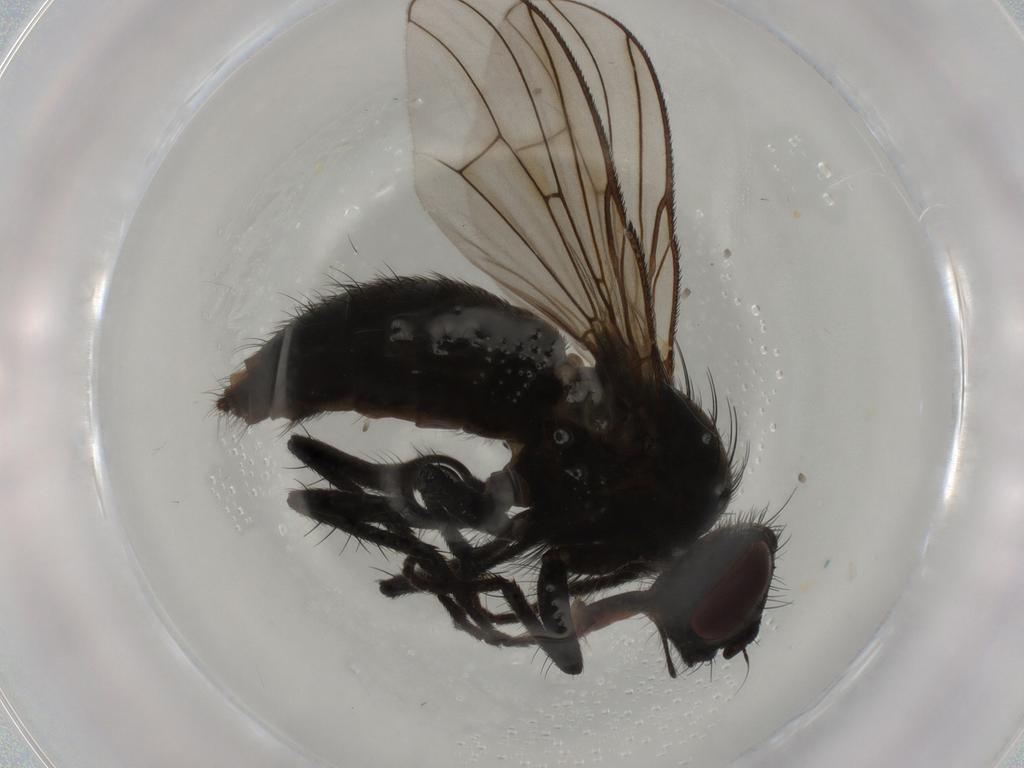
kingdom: Animalia
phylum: Arthropoda
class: Insecta
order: Diptera
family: Muscidae
